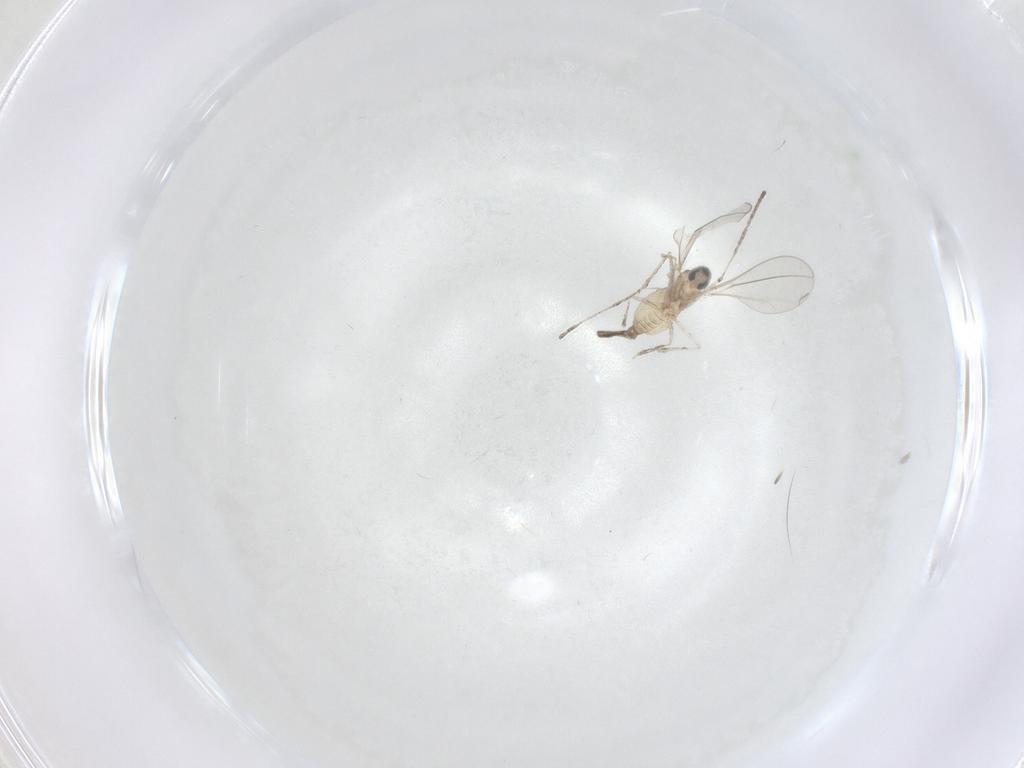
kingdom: Animalia
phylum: Arthropoda
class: Insecta
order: Diptera
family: Cecidomyiidae
